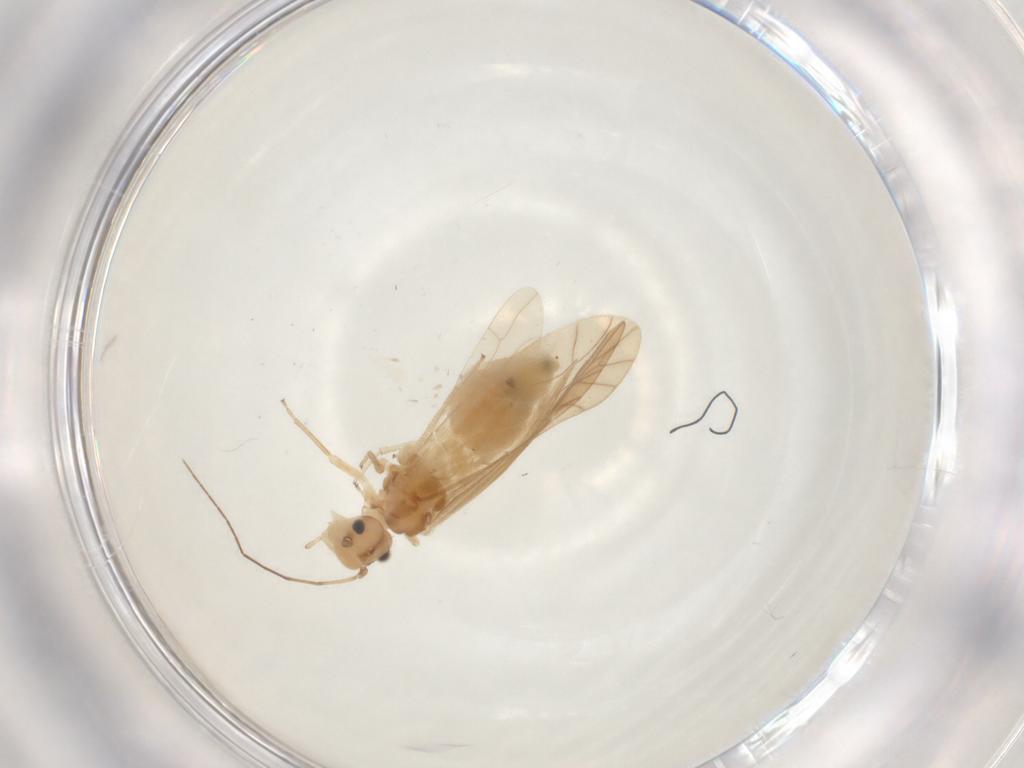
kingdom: Animalia
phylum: Arthropoda
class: Insecta
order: Psocodea
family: Caeciliusidae
